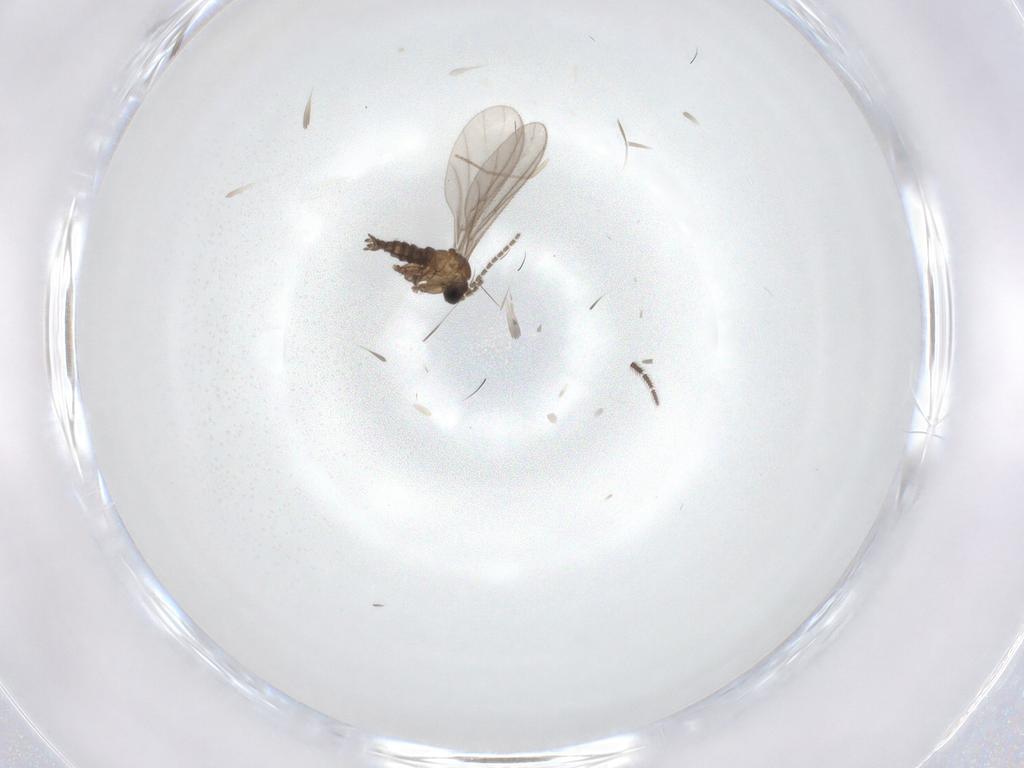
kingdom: Animalia
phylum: Arthropoda
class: Insecta
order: Diptera
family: Sciaridae
